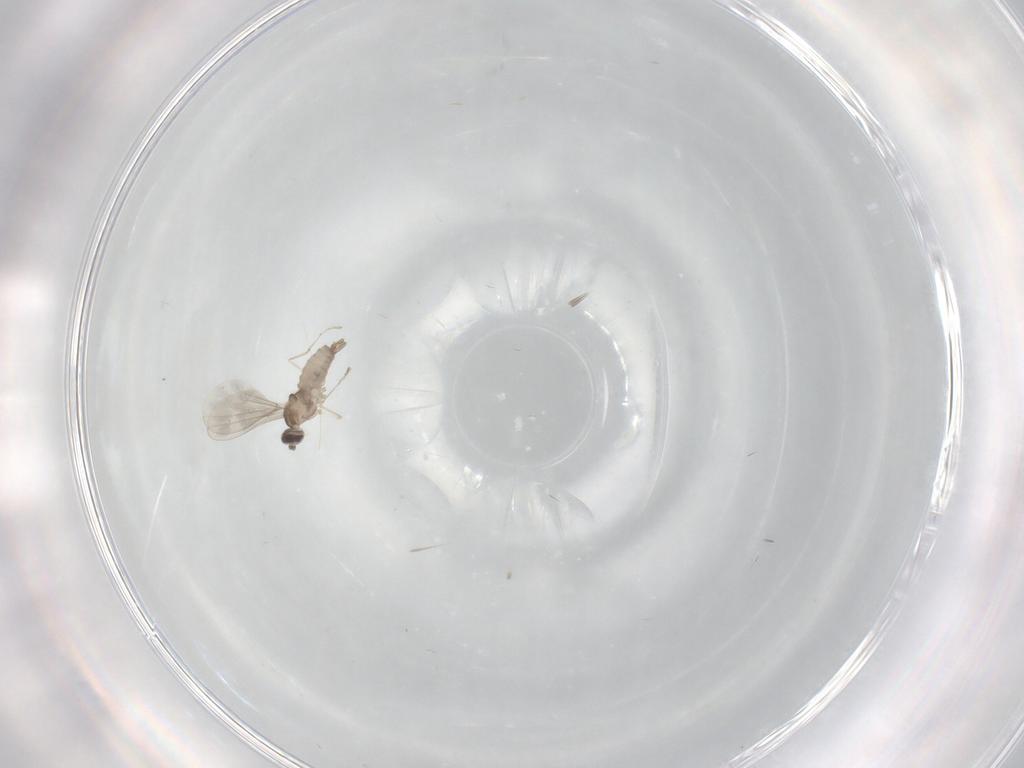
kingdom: Animalia
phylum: Arthropoda
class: Insecta
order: Diptera
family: Cecidomyiidae
